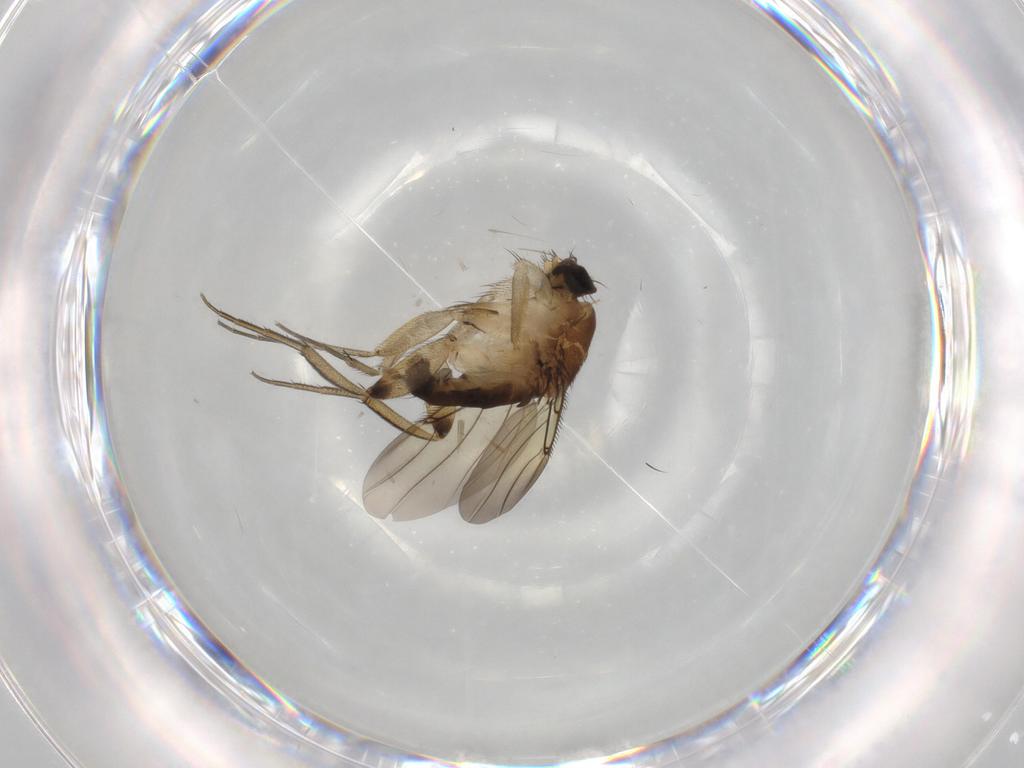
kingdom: Animalia
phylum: Arthropoda
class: Insecta
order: Diptera
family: Phoridae
